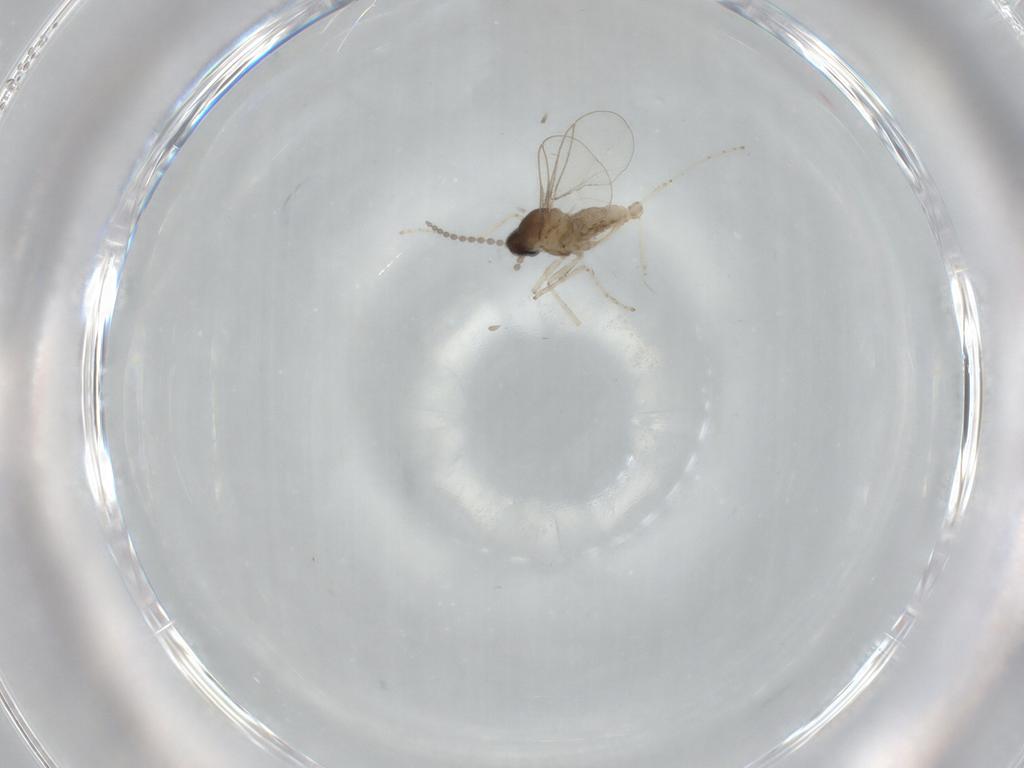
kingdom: Animalia
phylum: Arthropoda
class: Insecta
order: Diptera
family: Cecidomyiidae
